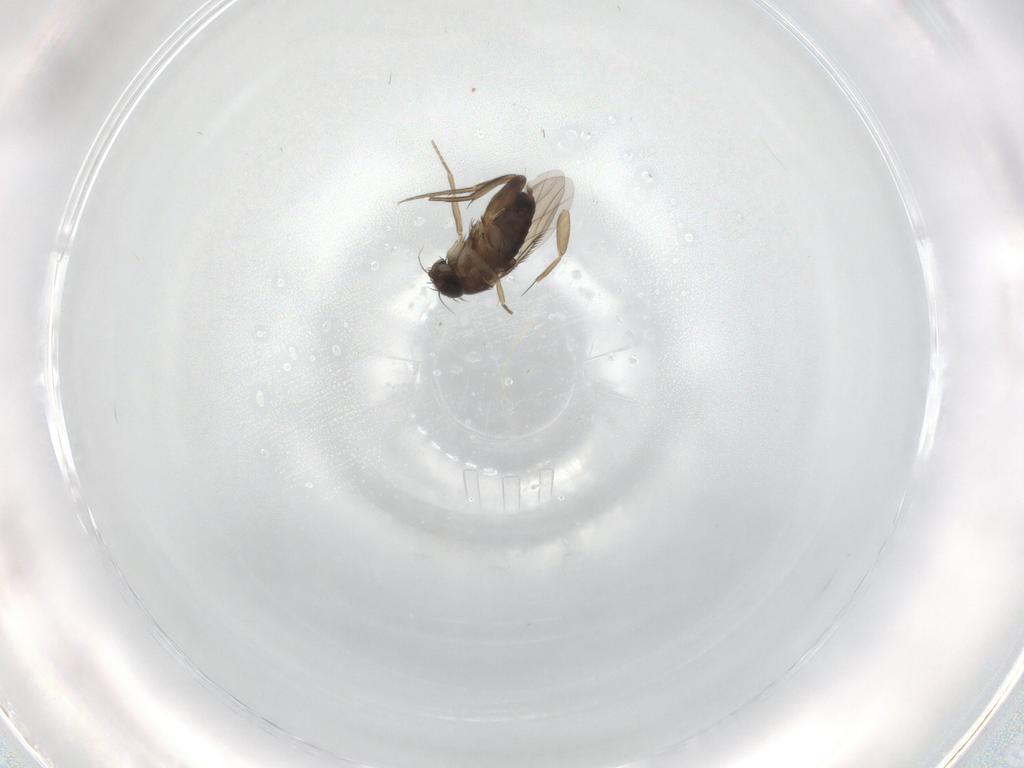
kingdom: Animalia
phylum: Arthropoda
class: Insecta
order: Diptera
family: Phoridae
